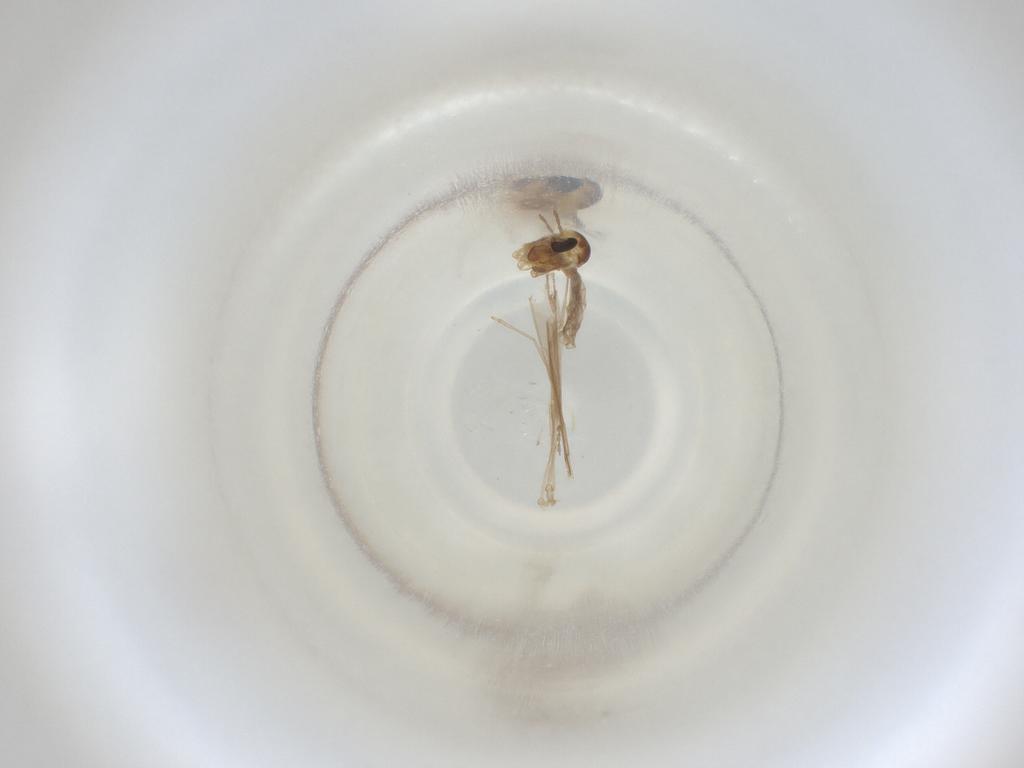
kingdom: Animalia
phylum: Arthropoda
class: Insecta
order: Diptera
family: Cecidomyiidae
